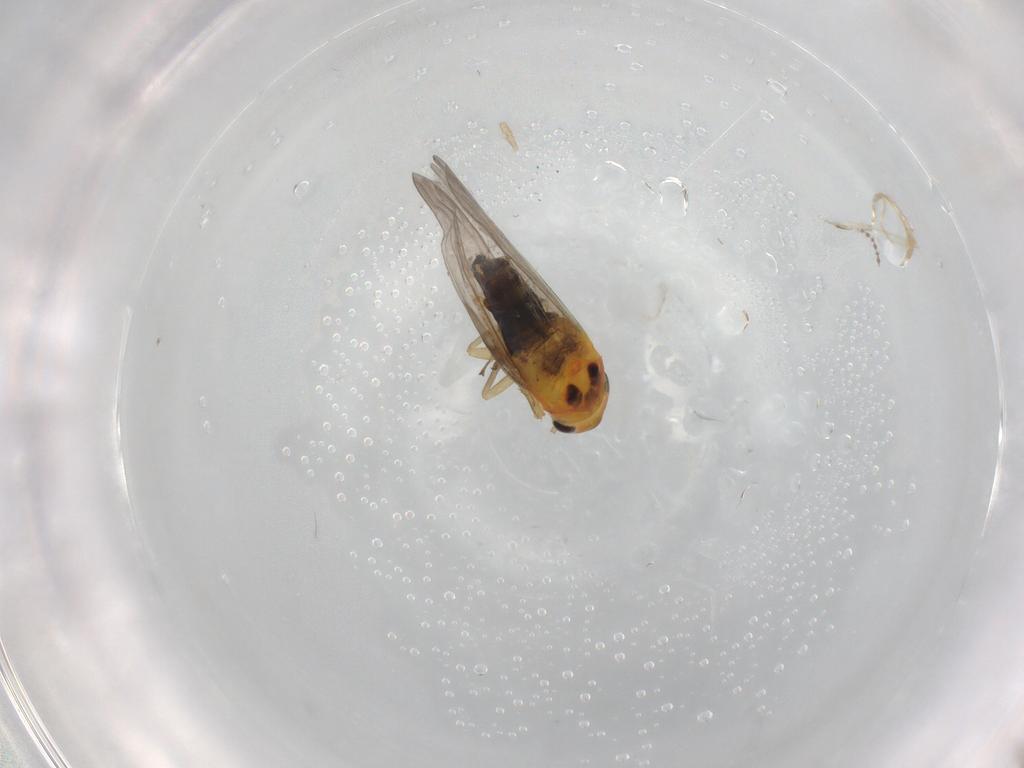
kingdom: Animalia
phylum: Arthropoda
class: Insecta
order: Hemiptera
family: Cicadellidae
